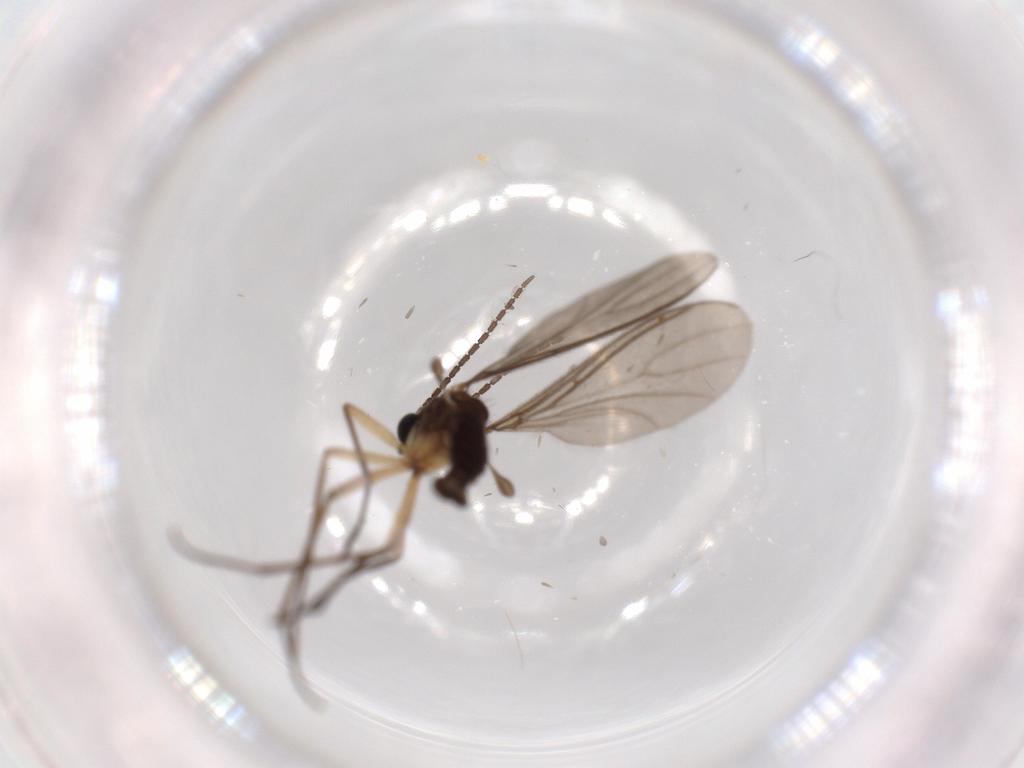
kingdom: Animalia
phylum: Arthropoda
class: Insecta
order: Diptera
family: Sciaridae
